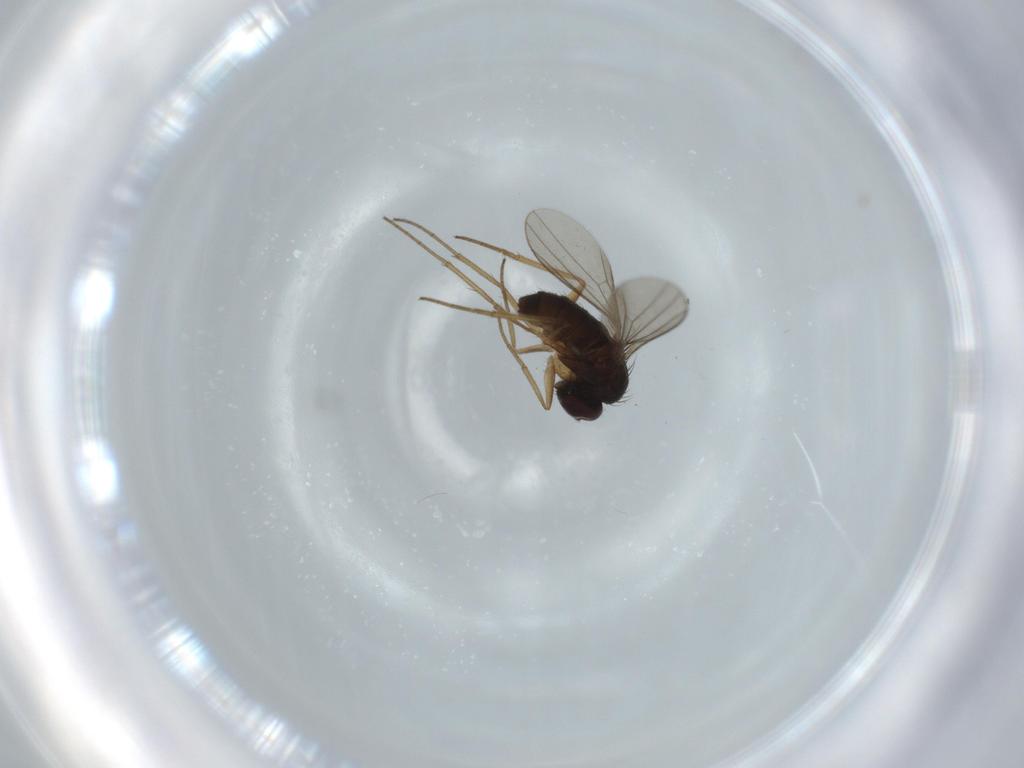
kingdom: Animalia
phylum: Arthropoda
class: Insecta
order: Diptera
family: Dolichopodidae
